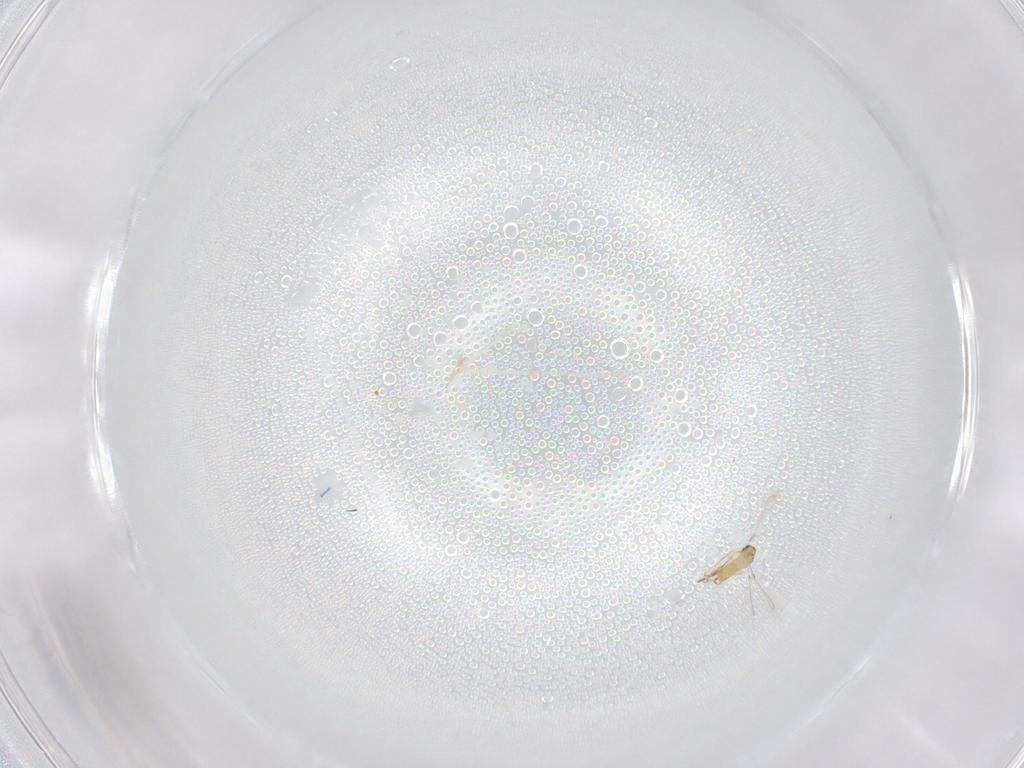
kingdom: Animalia
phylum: Arthropoda
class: Insecta
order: Hymenoptera
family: Mymaridae
